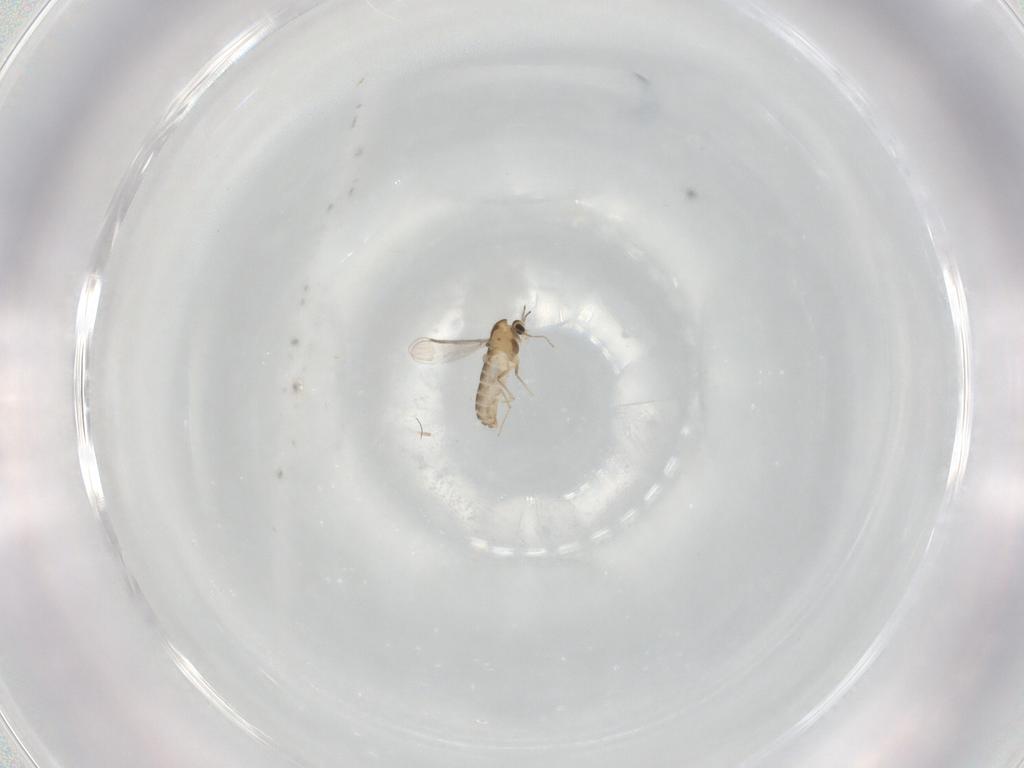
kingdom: Animalia
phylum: Arthropoda
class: Insecta
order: Diptera
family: Chironomidae
